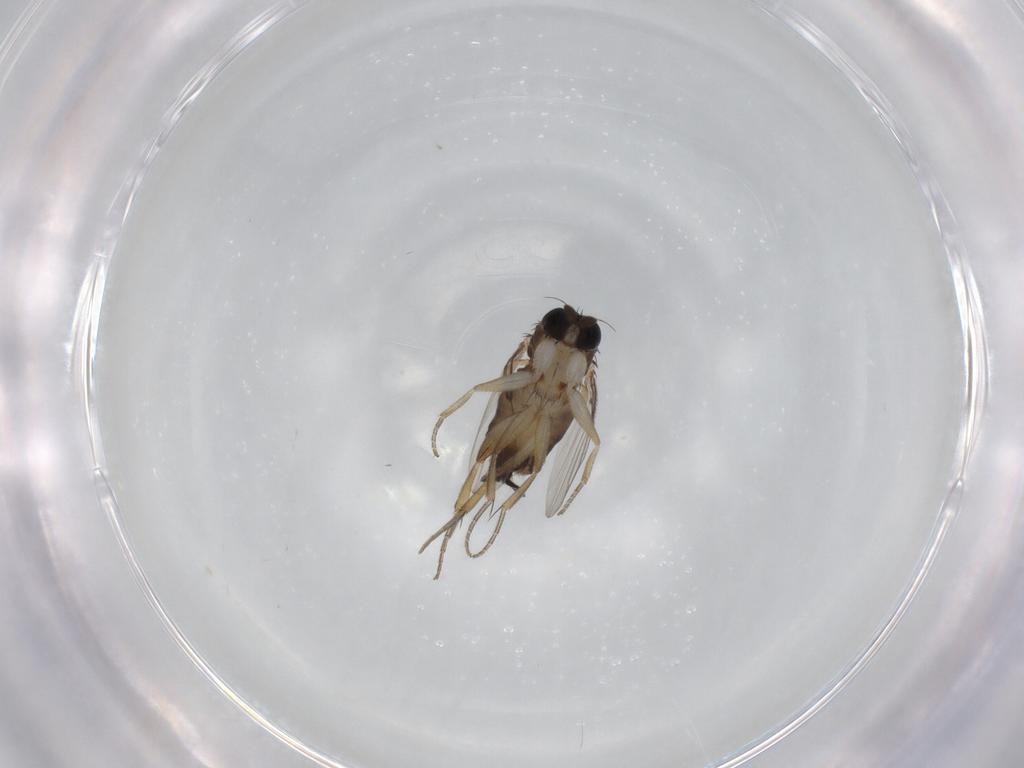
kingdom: Animalia
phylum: Arthropoda
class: Insecta
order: Diptera
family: Phoridae
